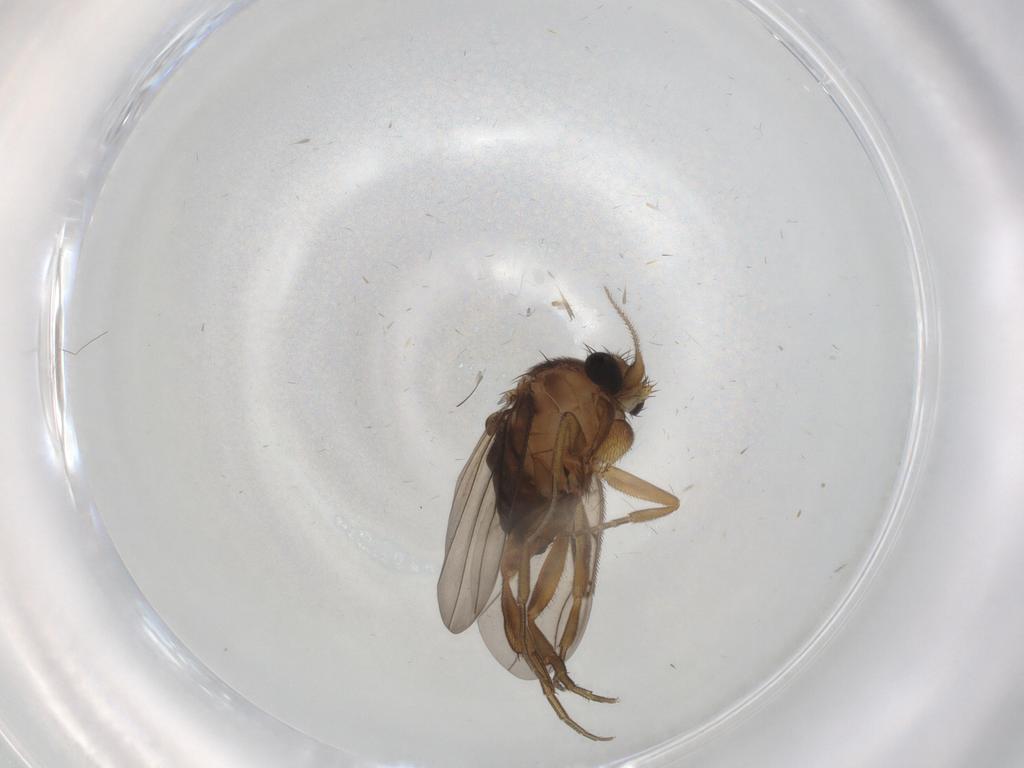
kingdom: Animalia
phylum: Arthropoda
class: Insecta
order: Diptera
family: Phoridae
